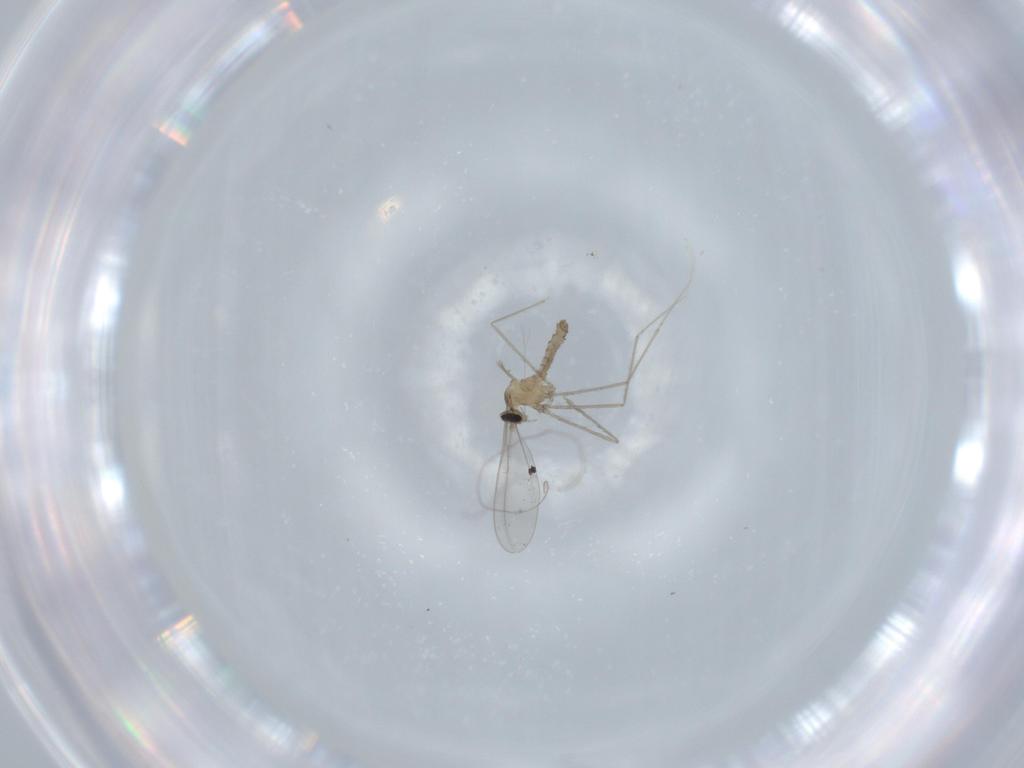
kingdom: Animalia
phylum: Arthropoda
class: Insecta
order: Diptera
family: Cecidomyiidae
